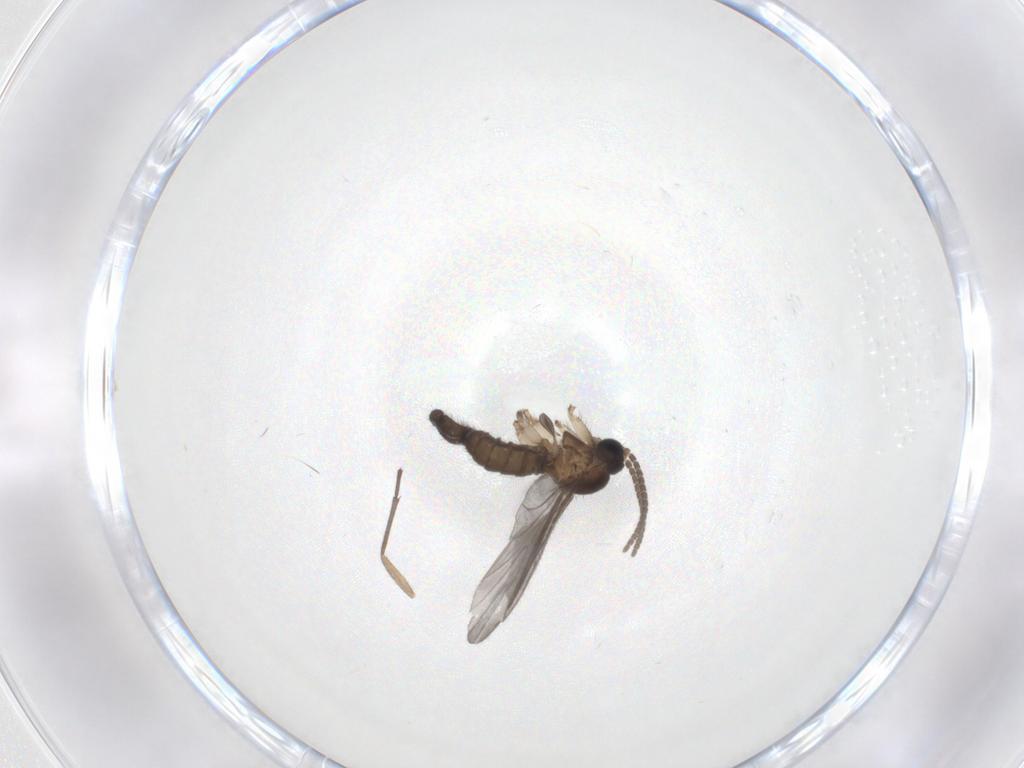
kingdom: Animalia
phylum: Arthropoda
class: Insecta
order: Diptera
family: Sciaridae
